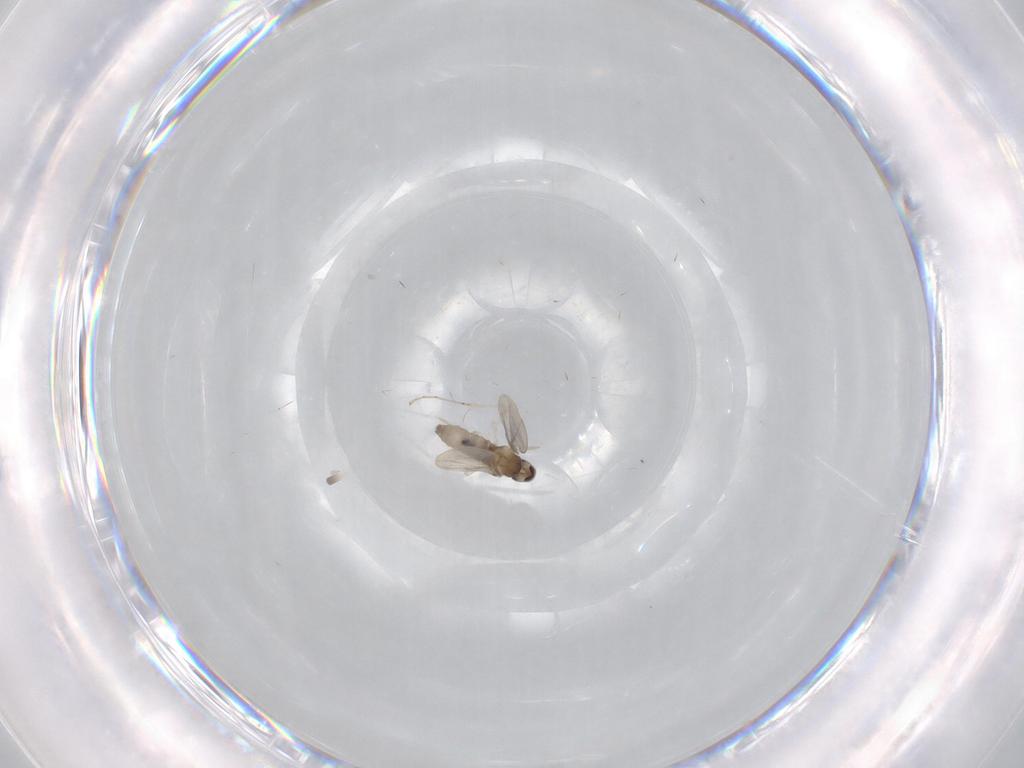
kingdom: Animalia
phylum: Arthropoda
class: Insecta
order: Diptera
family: Cecidomyiidae
